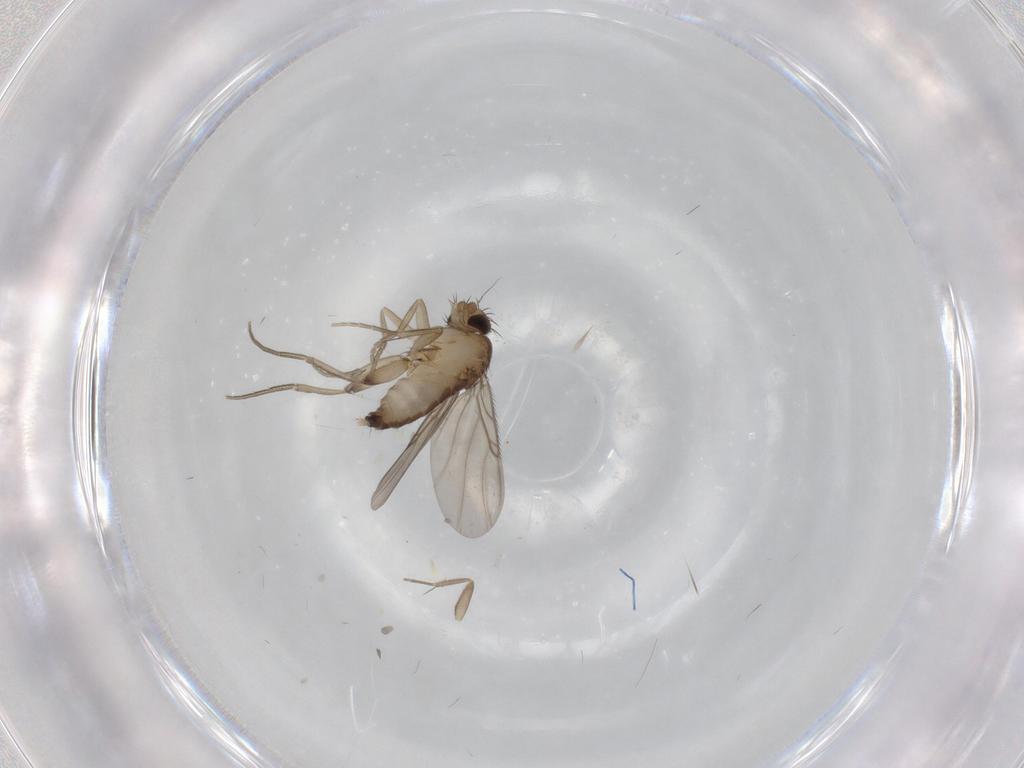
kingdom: Animalia
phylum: Arthropoda
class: Insecta
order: Diptera
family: Phoridae
